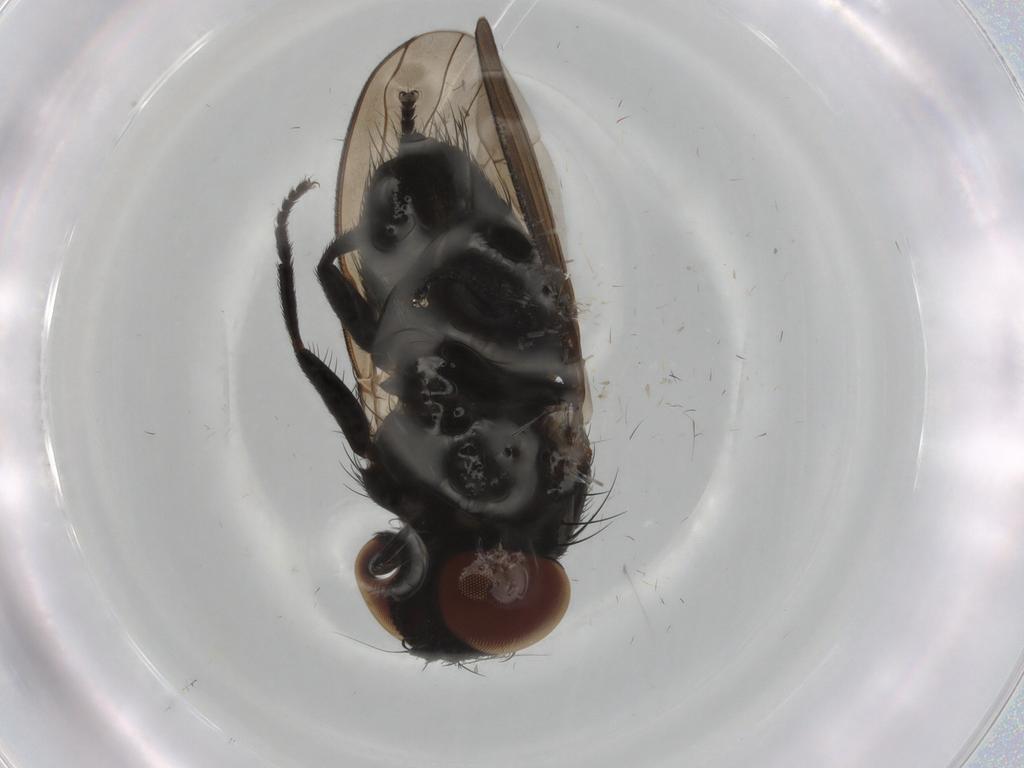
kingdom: Animalia
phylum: Arthropoda
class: Insecta
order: Diptera
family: Milichiidae
